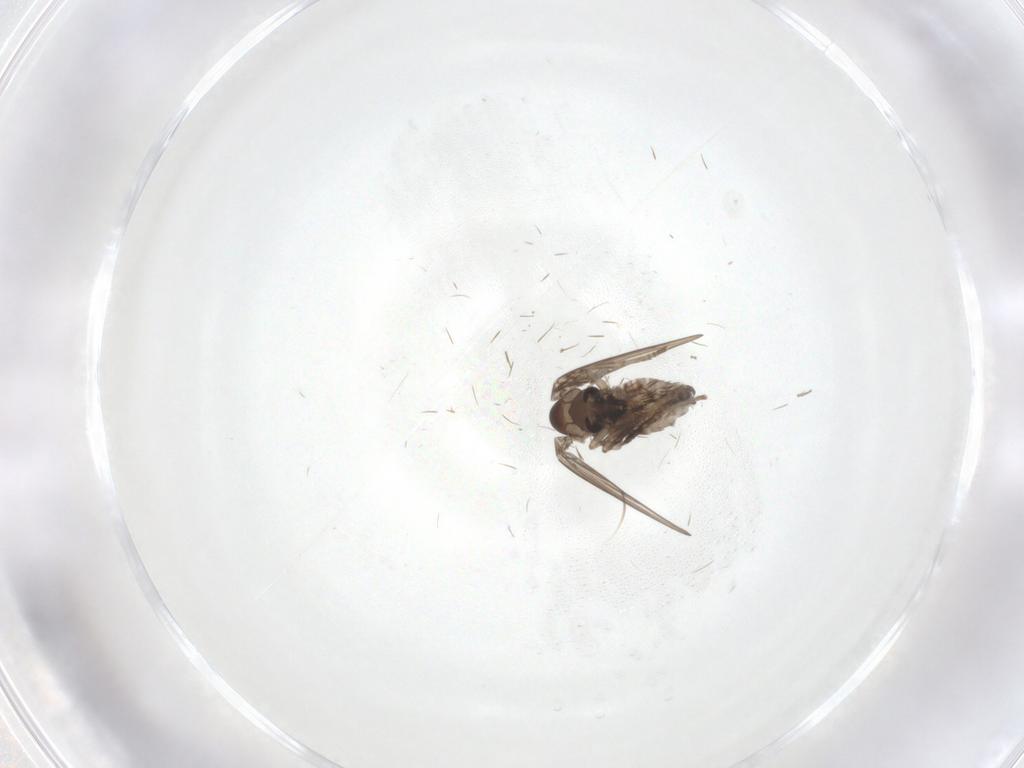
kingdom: Animalia
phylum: Arthropoda
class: Insecta
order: Diptera
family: Psychodidae
